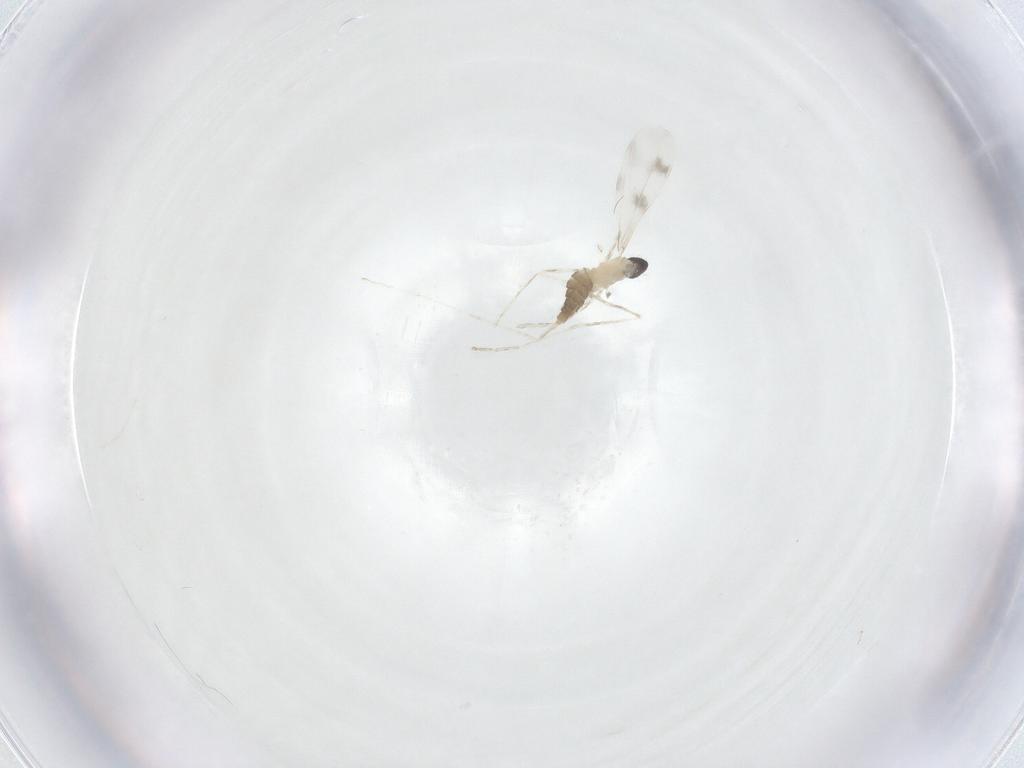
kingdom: Animalia
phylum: Arthropoda
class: Insecta
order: Diptera
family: Cecidomyiidae
